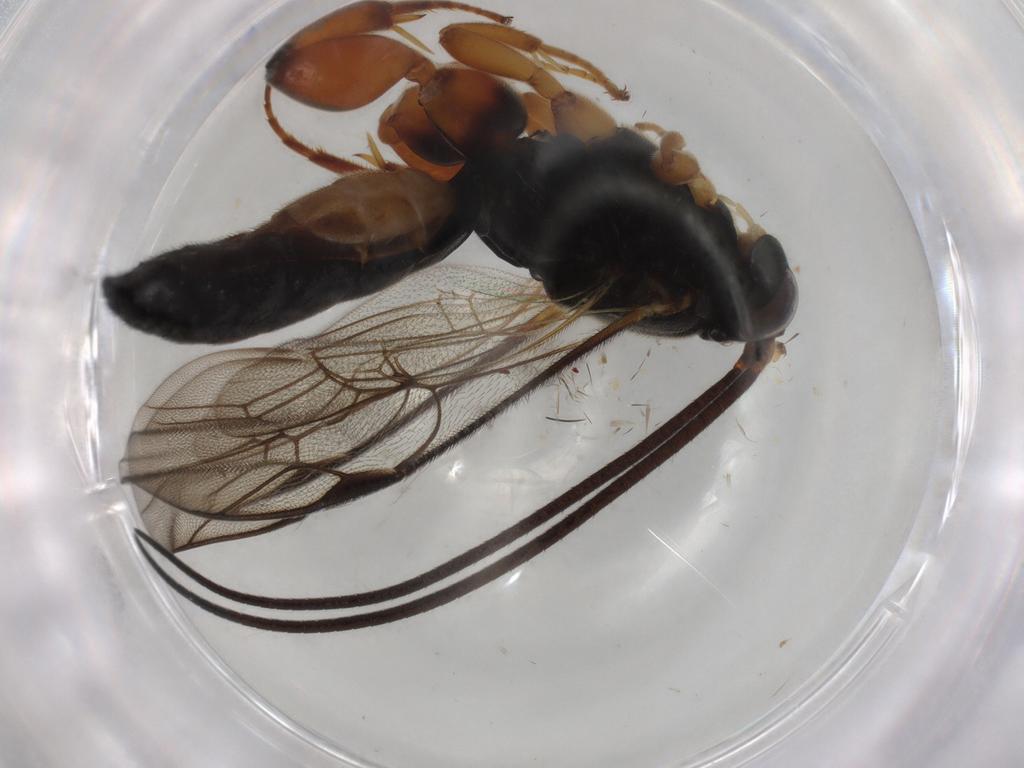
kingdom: Animalia
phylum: Arthropoda
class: Insecta
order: Hymenoptera
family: Ichneumonidae
